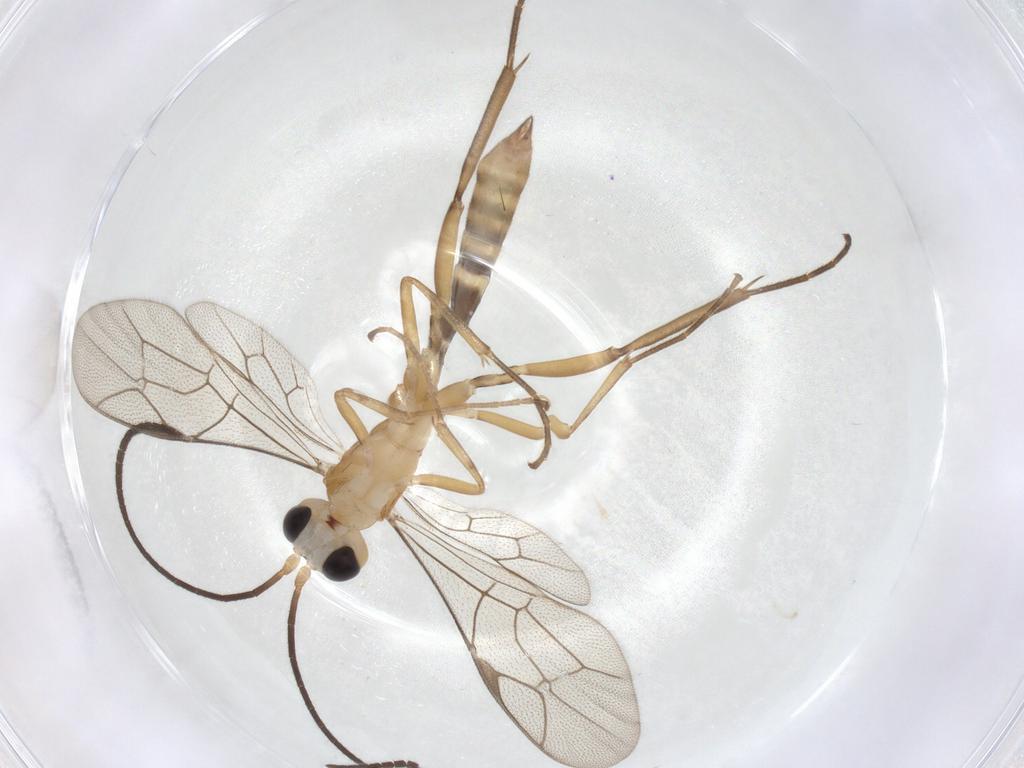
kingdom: Animalia
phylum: Arthropoda
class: Insecta
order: Hymenoptera
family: Ichneumonidae
